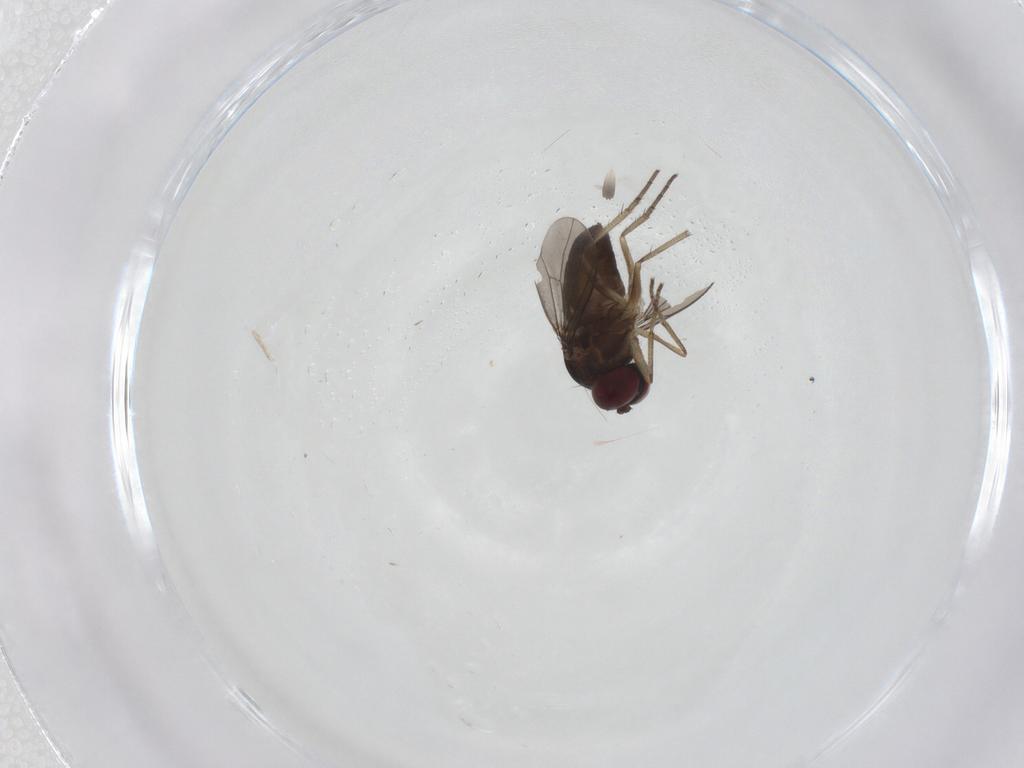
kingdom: Animalia
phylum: Arthropoda
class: Insecta
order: Diptera
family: Dolichopodidae
